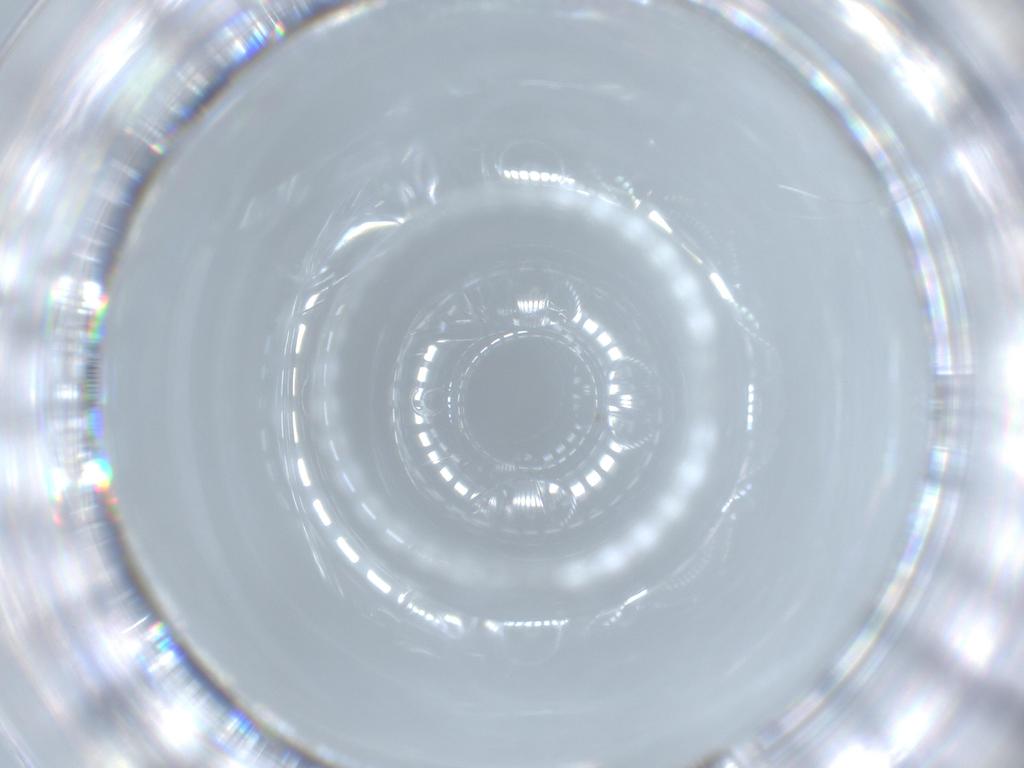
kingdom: Animalia
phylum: Arthropoda
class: Insecta
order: Diptera
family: Cecidomyiidae
